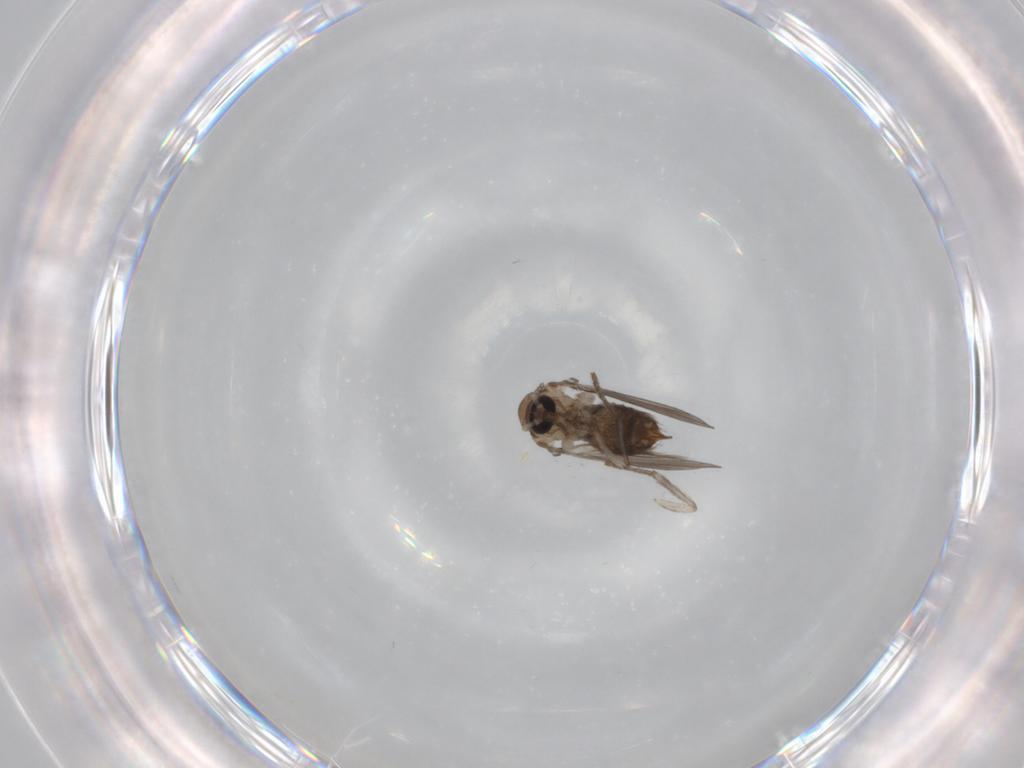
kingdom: Animalia
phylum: Arthropoda
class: Insecta
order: Diptera
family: Psychodidae
